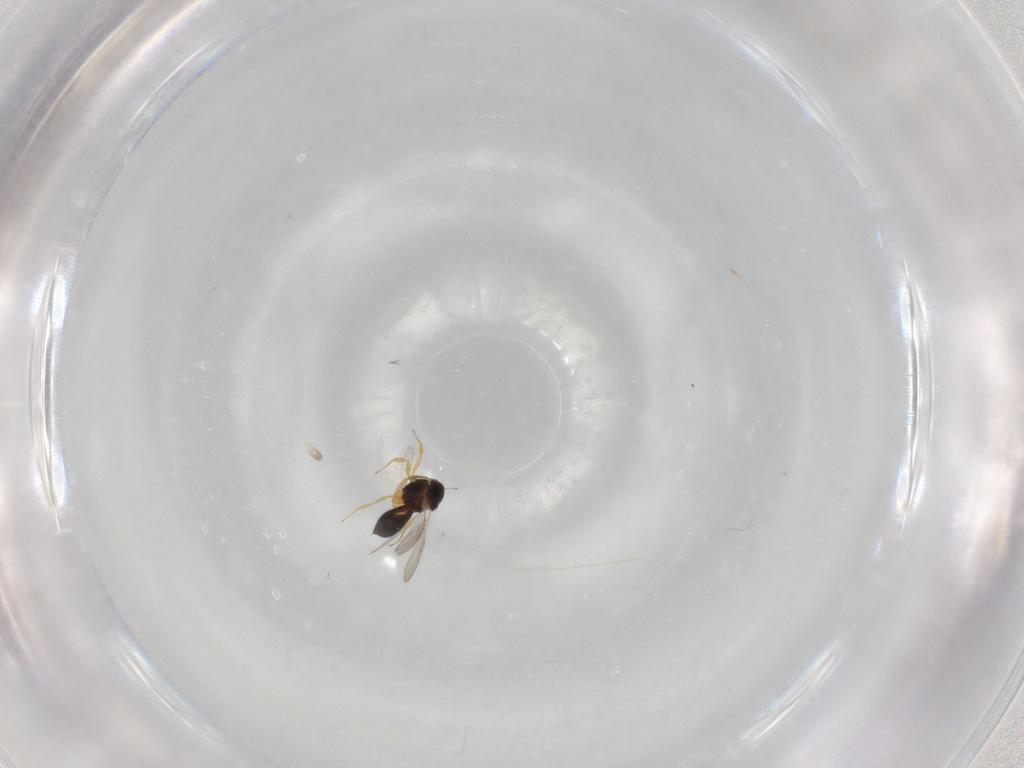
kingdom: Animalia
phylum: Arthropoda
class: Insecta
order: Hymenoptera
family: Scelionidae
